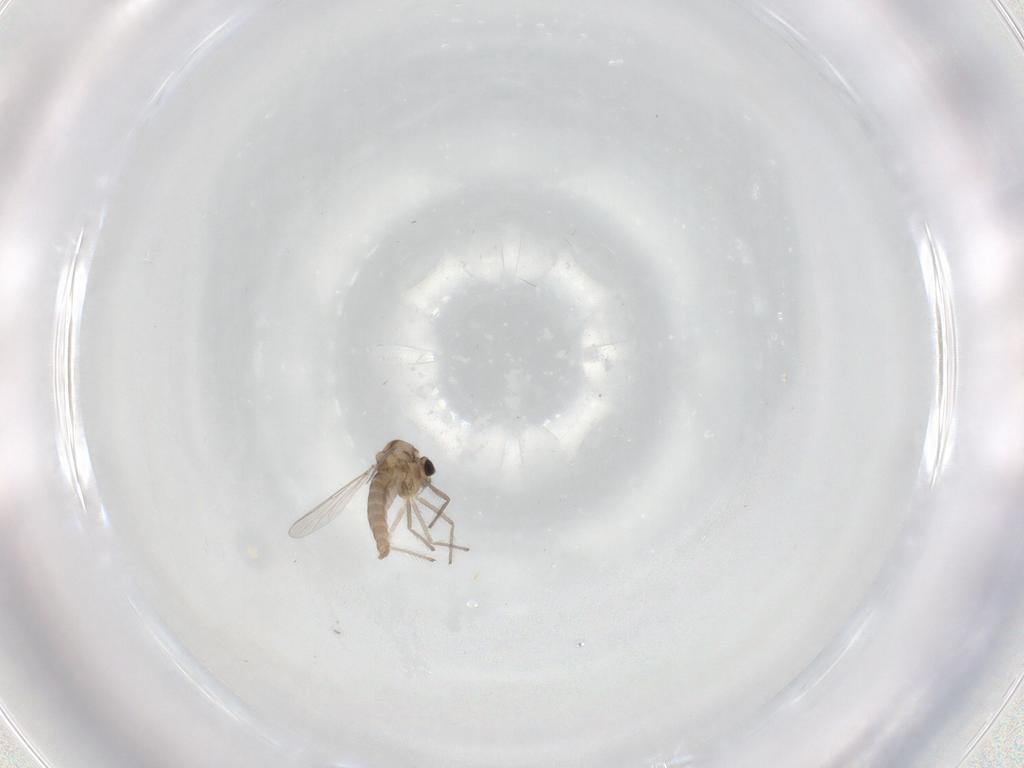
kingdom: Animalia
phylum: Arthropoda
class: Insecta
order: Diptera
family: Chironomidae
